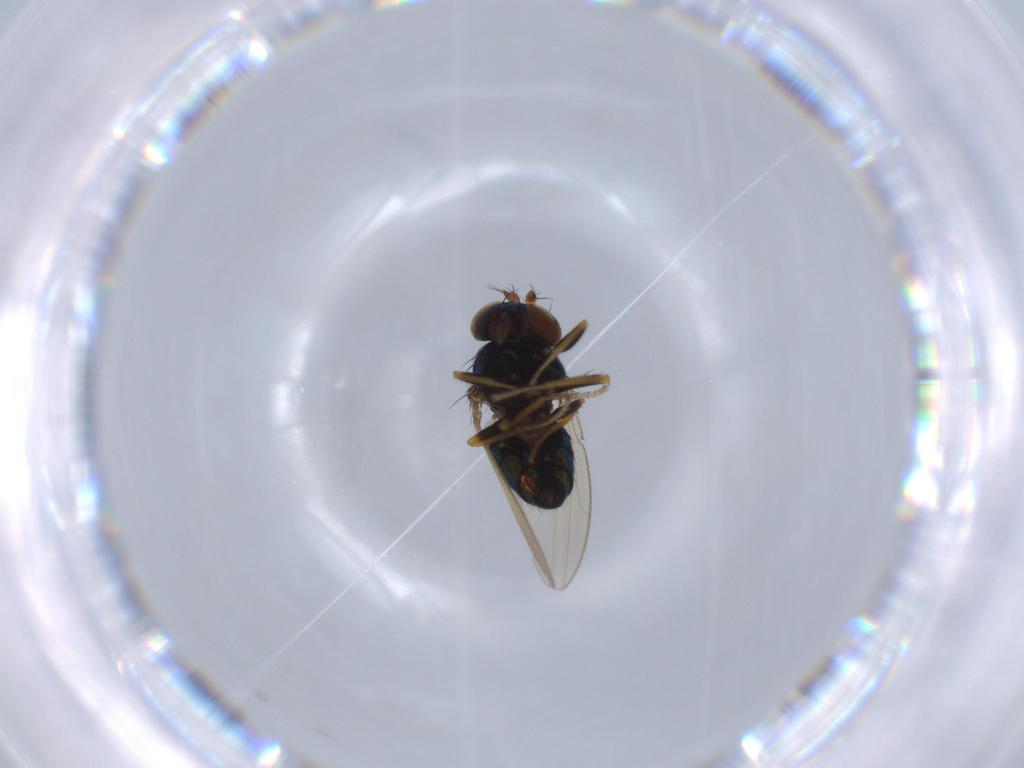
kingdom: Animalia
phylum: Arthropoda
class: Insecta
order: Diptera
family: Ephydridae
